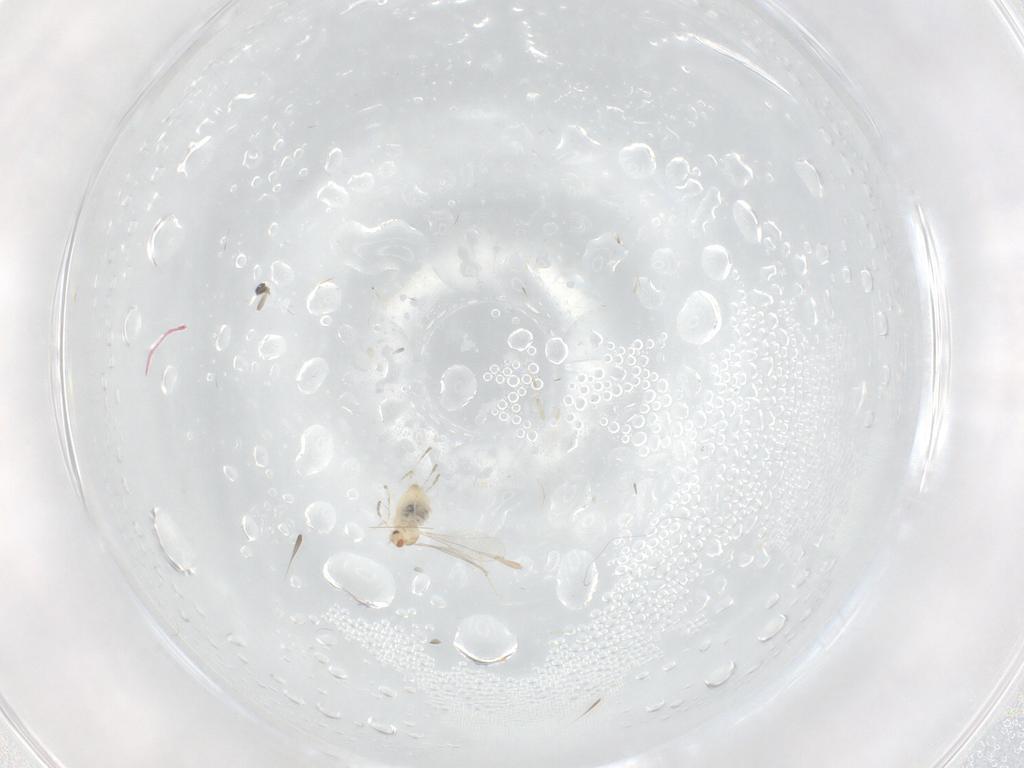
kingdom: Animalia
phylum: Arthropoda
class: Insecta
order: Diptera
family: Cecidomyiidae
